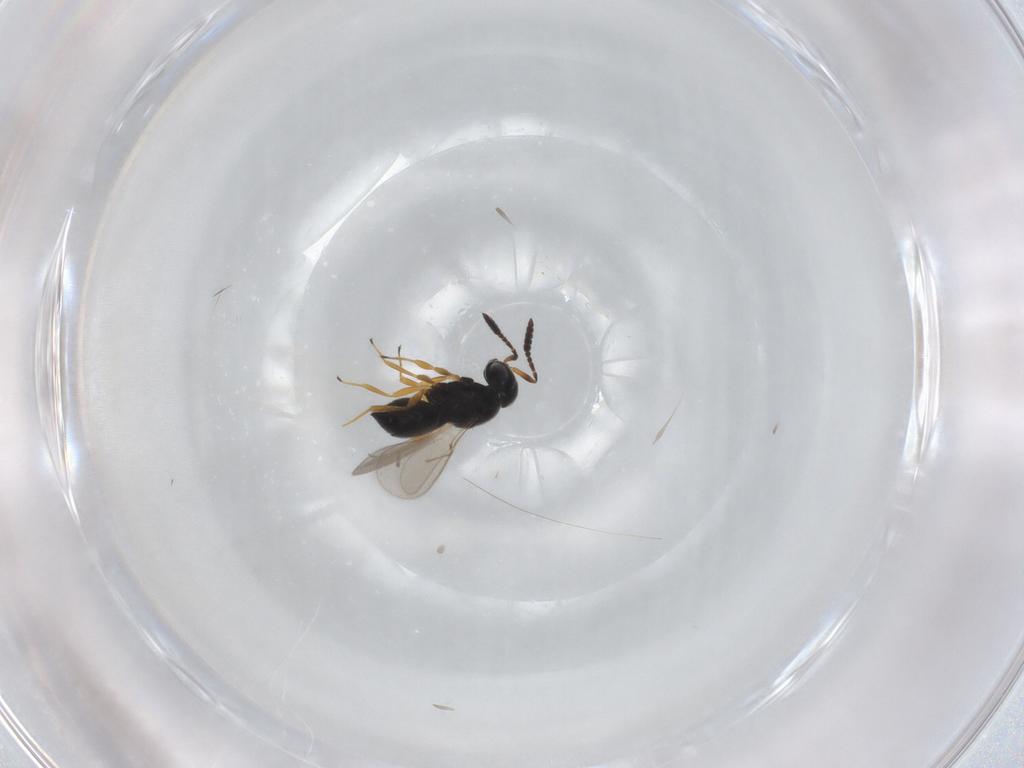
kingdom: Animalia
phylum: Arthropoda
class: Insecta
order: Hymenoptera
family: Scelionidae
